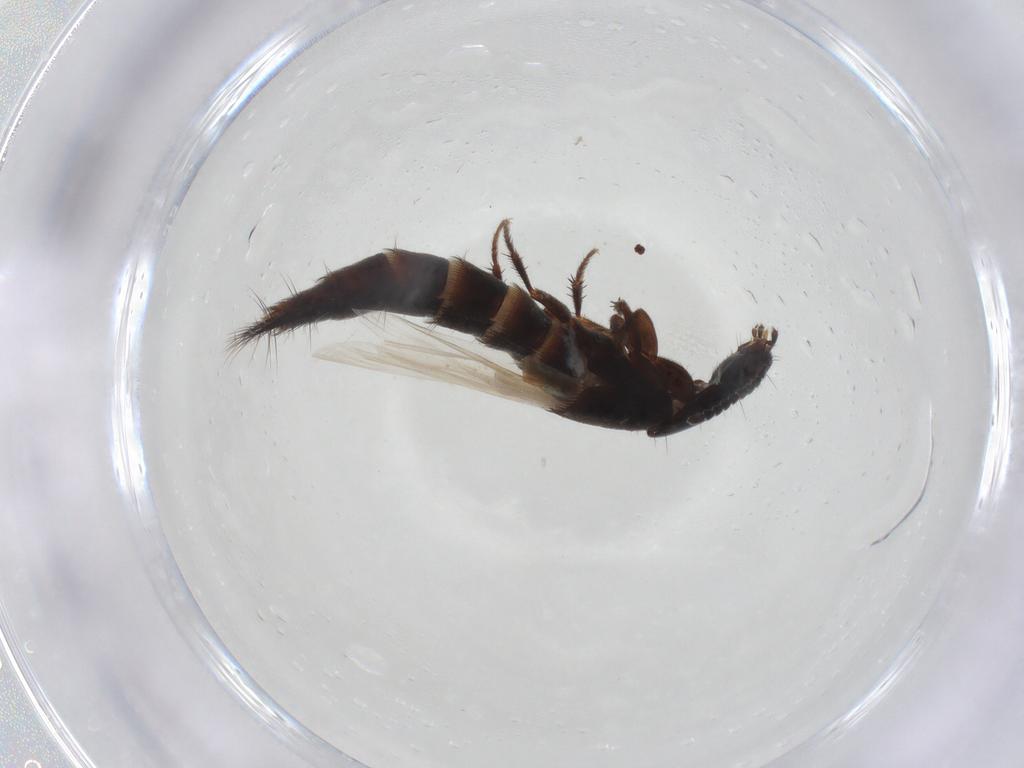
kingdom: Animalia
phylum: Arthropoda
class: Insecta
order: Coleoptera
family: Staphylinidae
